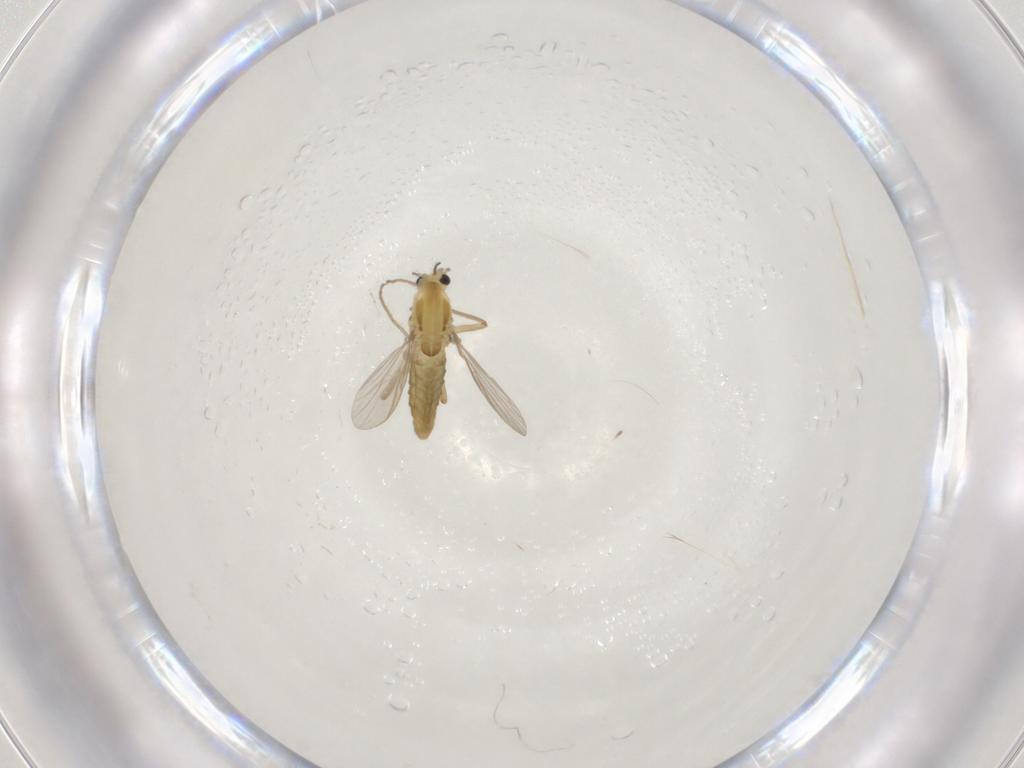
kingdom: Animalia
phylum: Arthropoda
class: Insecta
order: Diptera
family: Chironomidae
